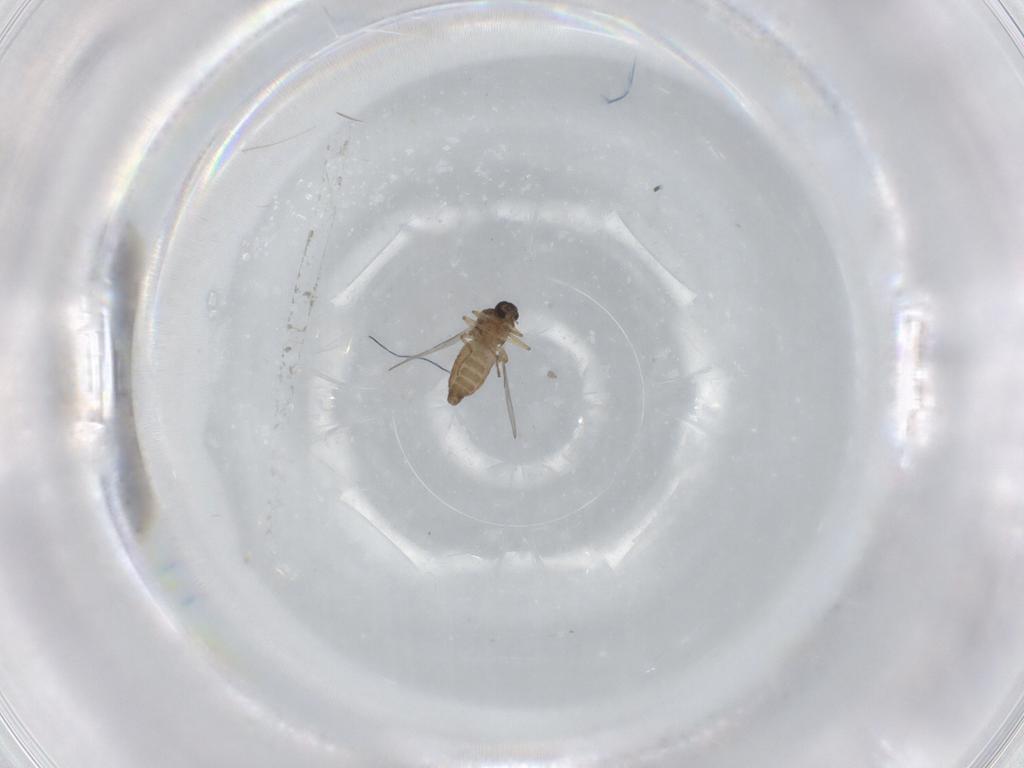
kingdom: Animalia
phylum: Arthropoda
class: Insecta
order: Diptera
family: Ceratopogonidae
